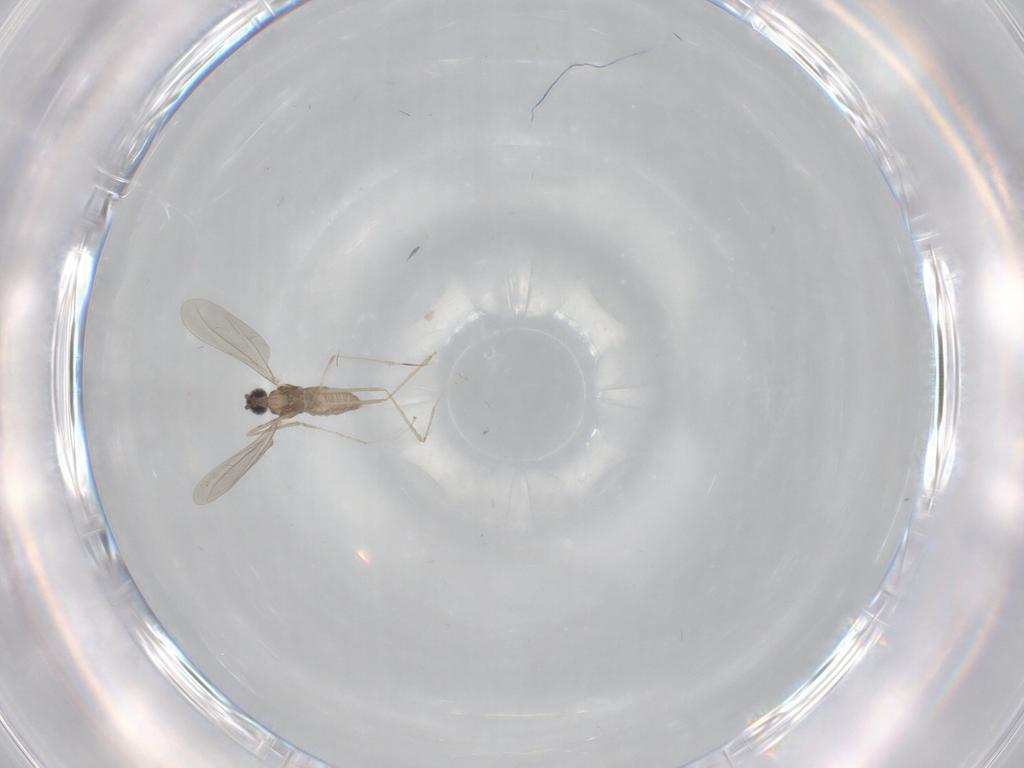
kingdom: Animalia
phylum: Arthropoda
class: Insecta
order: Diptera
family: Cecidomyiidae
